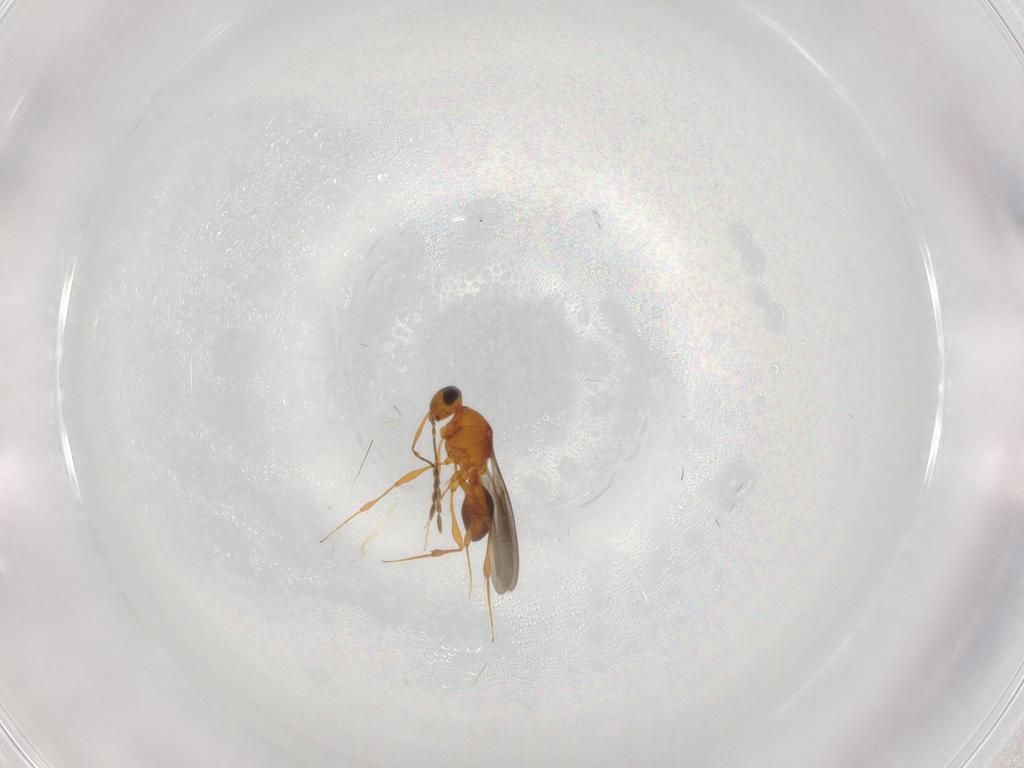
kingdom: Animalia
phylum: Arthropoda
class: Insecta
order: Hymenoptera
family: Platygastridae
